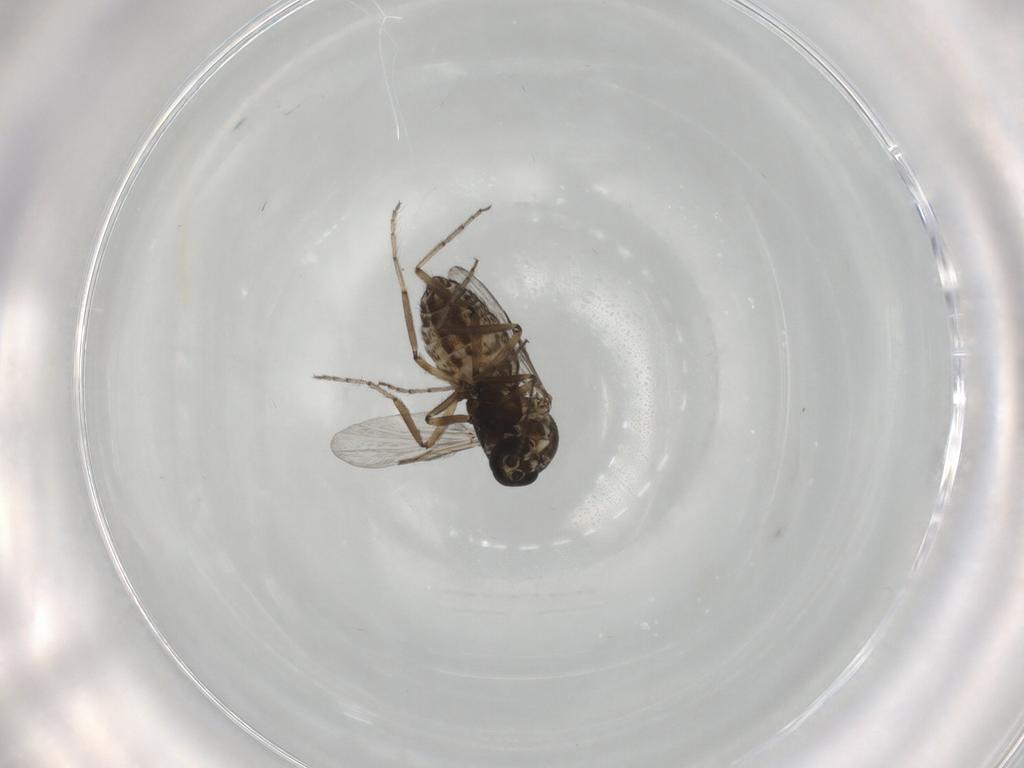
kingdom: Animalia
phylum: Arthropoda
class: Insecta
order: Diptera
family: Ceratopogonidae
